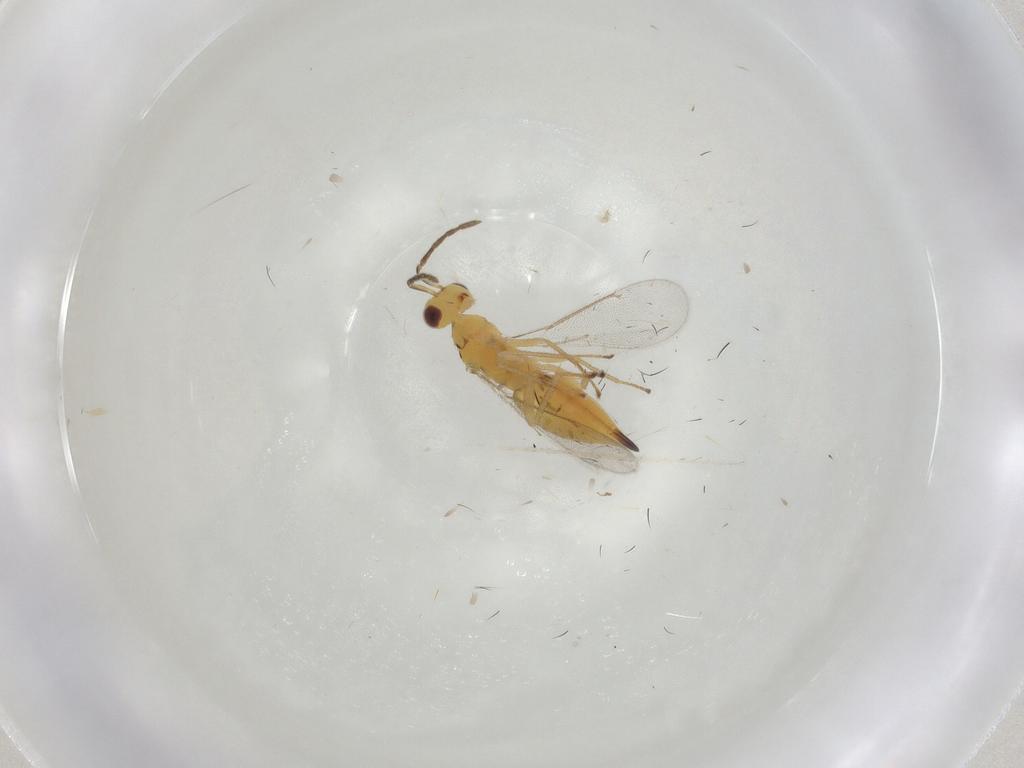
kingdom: Animalia
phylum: Arthropoda
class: Insecta
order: Hymenoptera
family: Eulophidae
